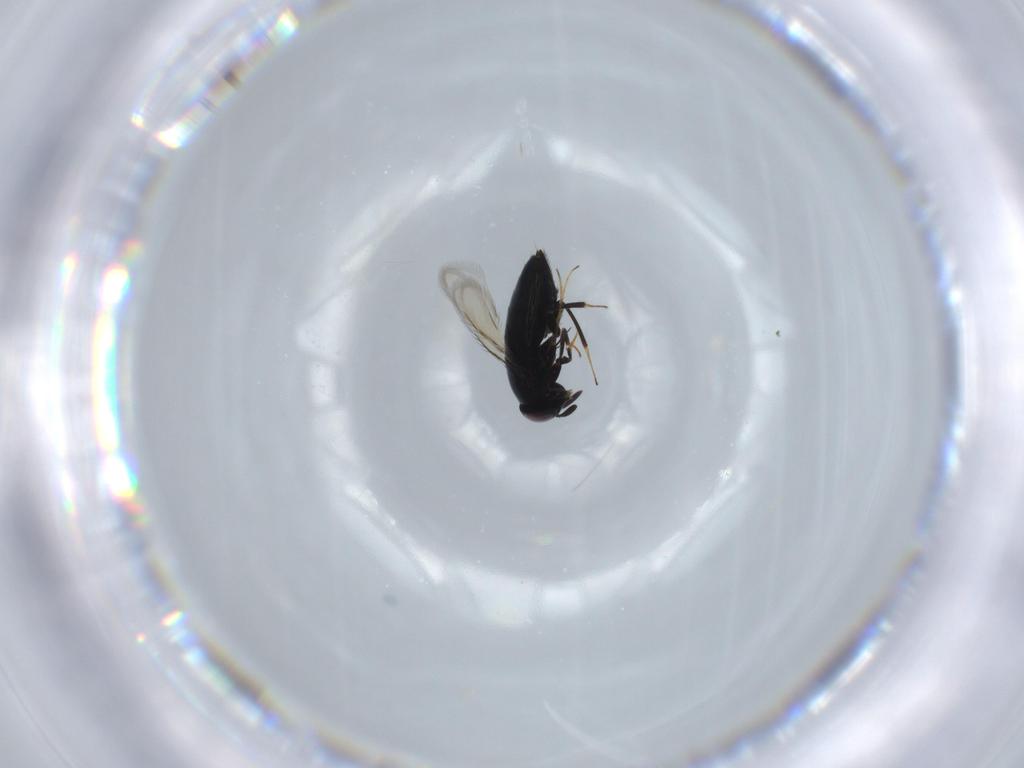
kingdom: Animalia
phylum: Arthropoda
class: Insecta
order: Hymenoptera
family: Signiphoridae
